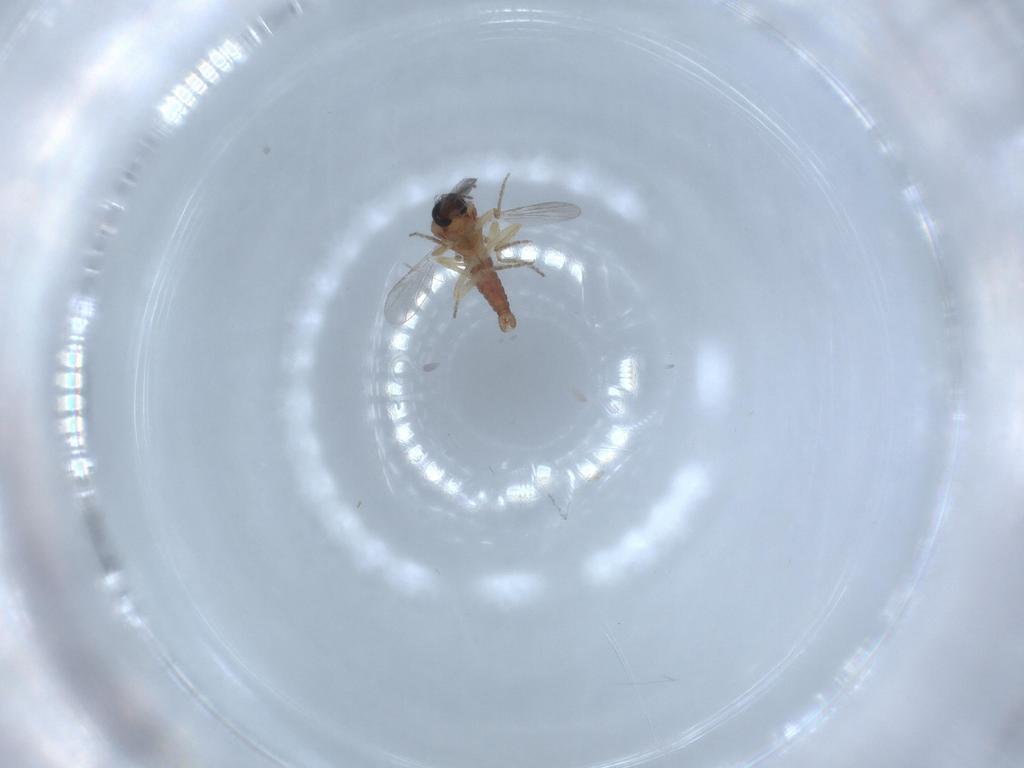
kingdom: Animalia
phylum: Arthropoda
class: Insecta
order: Diptera
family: Ceratopogonidae
